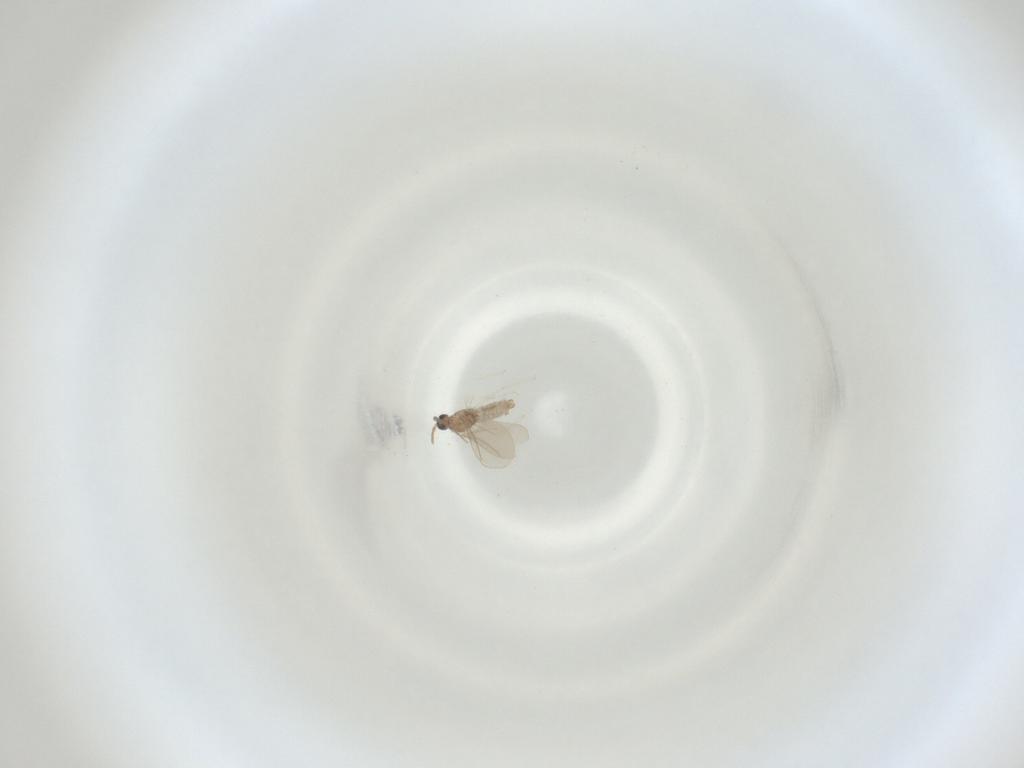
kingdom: Animalia
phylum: Arthropoda
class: Insecta
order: Diptera
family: Cecidomyiidae
